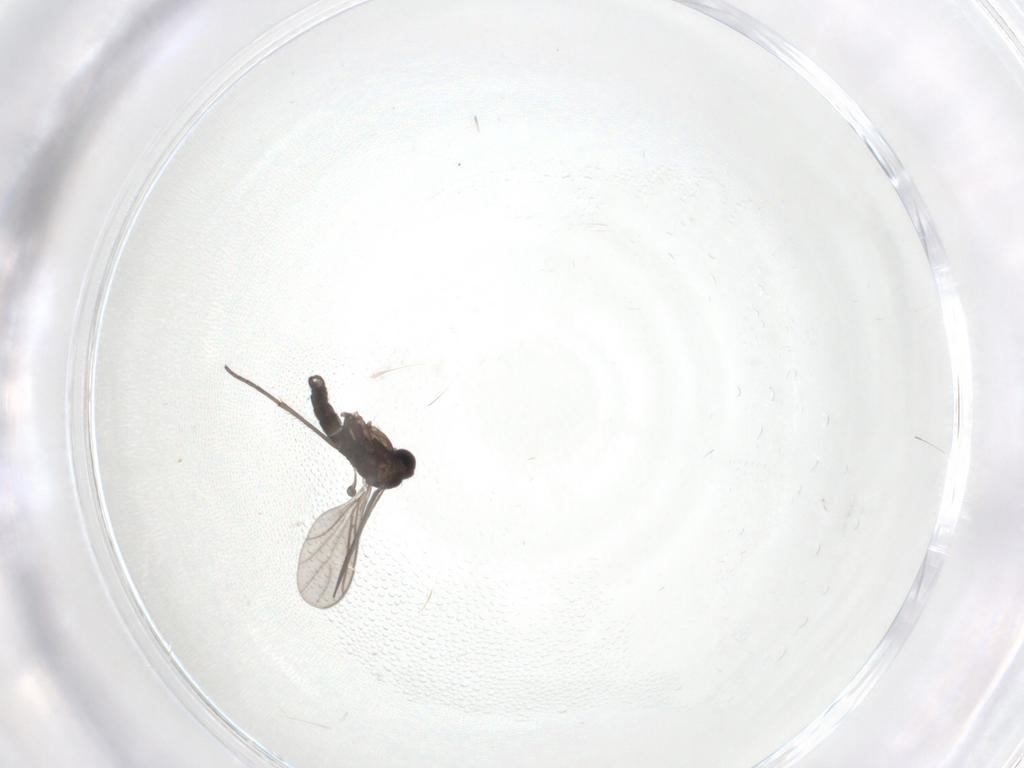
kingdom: Animalia
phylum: Arthropoda
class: Insecta
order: Diptera
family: Sciaridae
